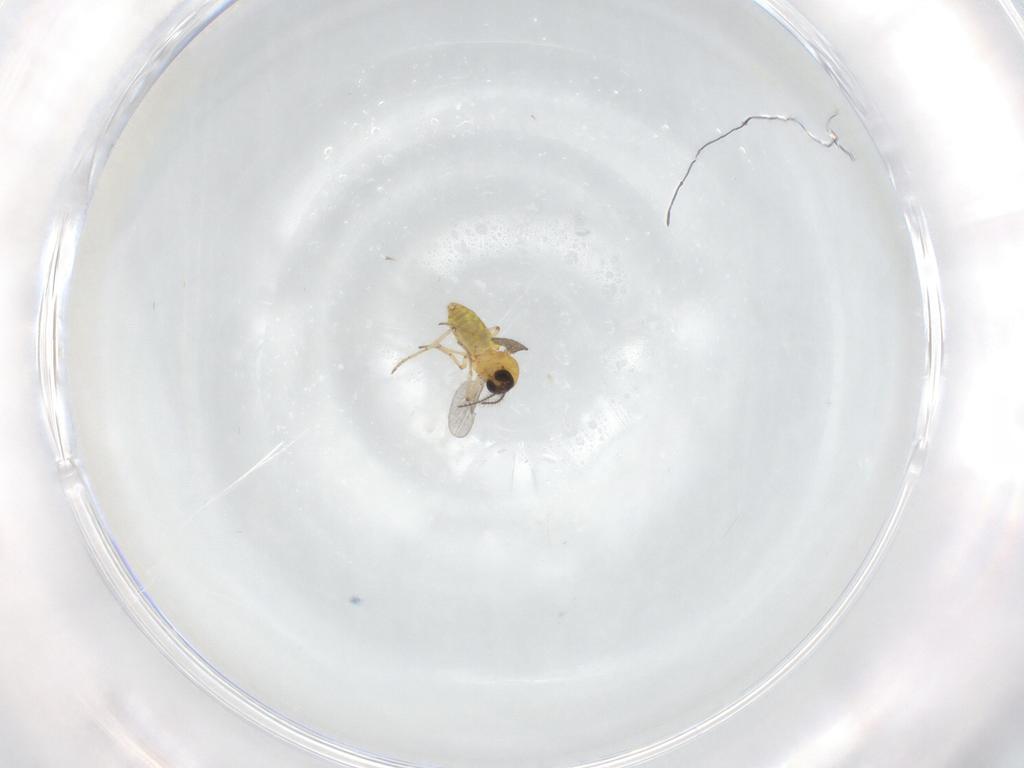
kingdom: Animalia
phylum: Arthropoda
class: Insecta
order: Diptera
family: Ceratopogonidae
